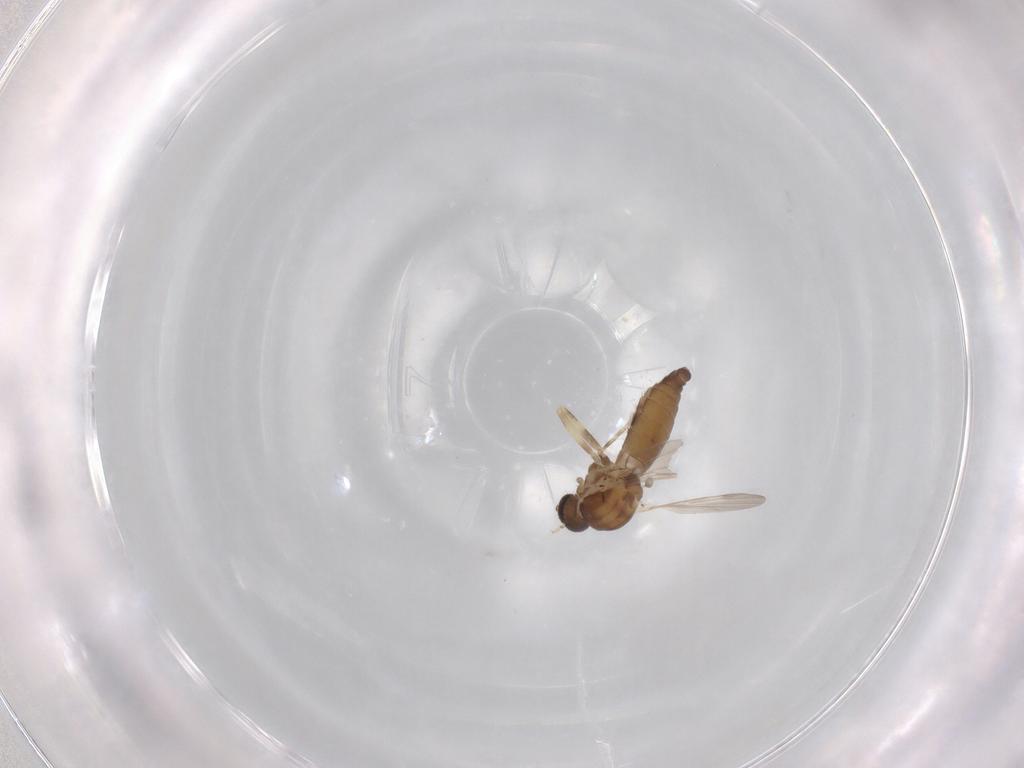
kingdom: Animalia
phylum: Arthropoda
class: Insecta
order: Diptera
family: Ceratopogonidae
